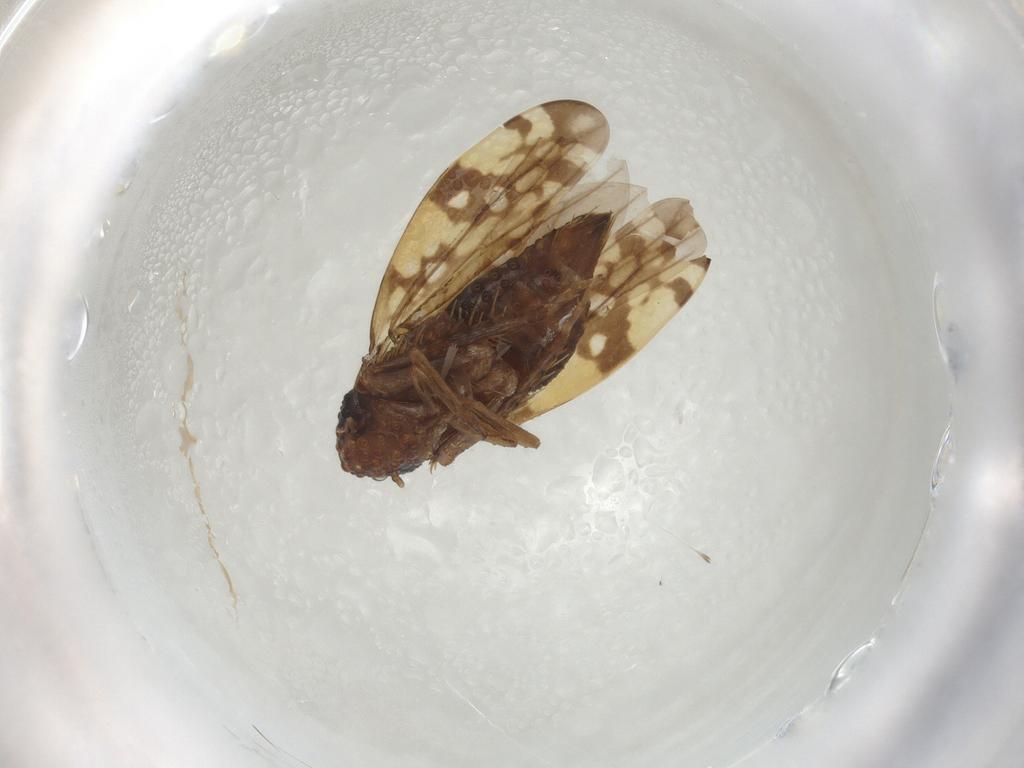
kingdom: Animalia
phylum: Arthropoda
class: Insecta
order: Hemiptera
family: Cicadellidae
